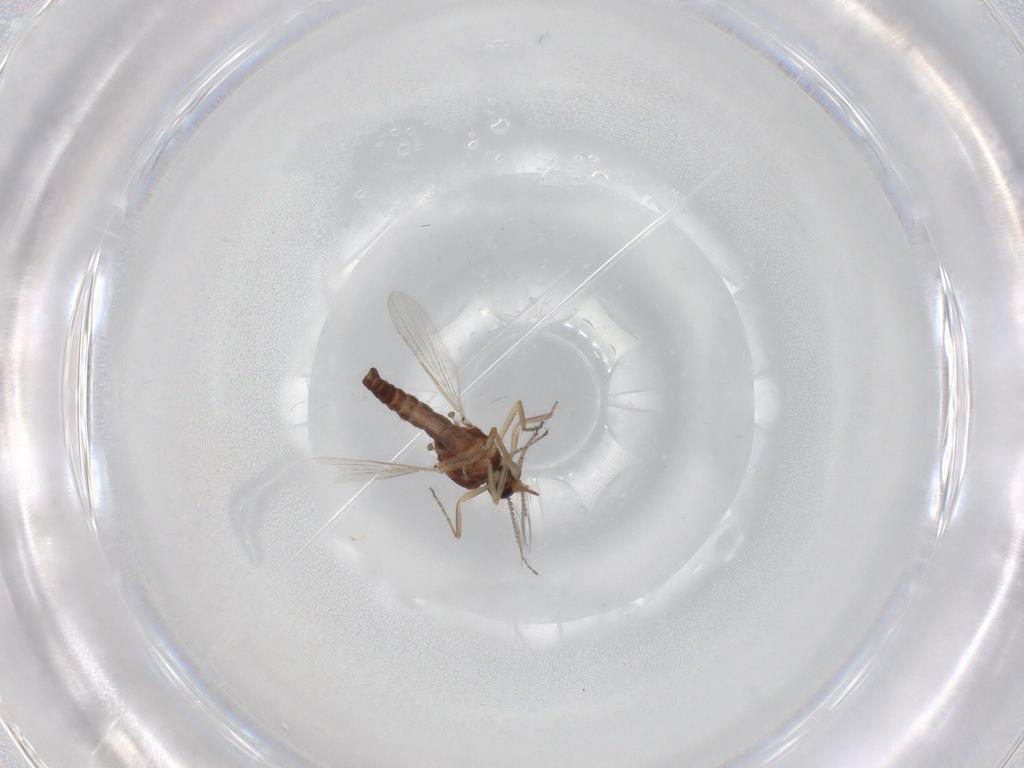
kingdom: Animalia
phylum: Arthropoda
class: Insecta
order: Diptera
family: Ceratopogonidae
